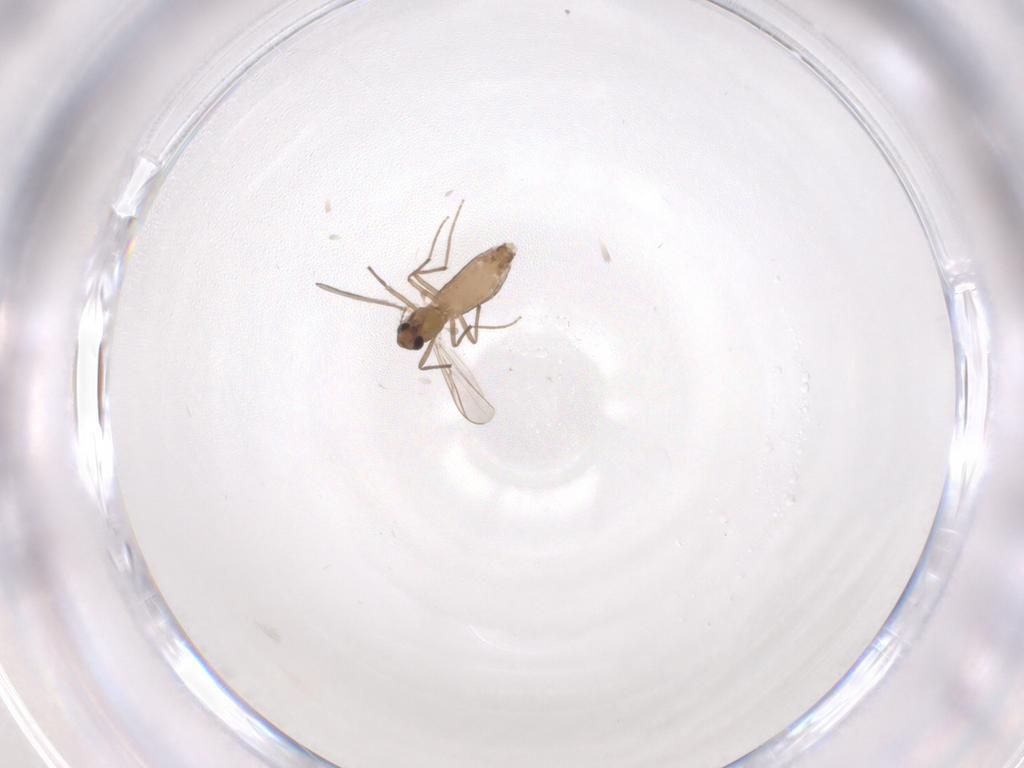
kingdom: Animalia
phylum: Arthropoda
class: Insecta
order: Diptera
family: Chironomidae
